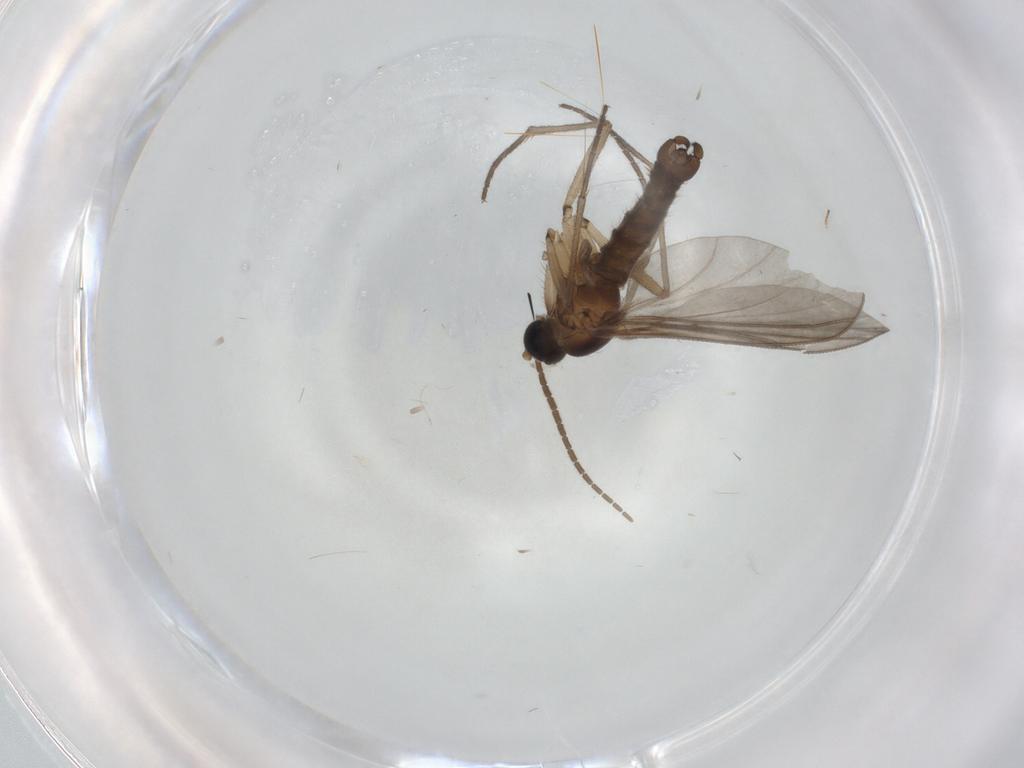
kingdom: Animalia
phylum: Arthropoda
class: Insecta
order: Diptera
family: Sciaridae
